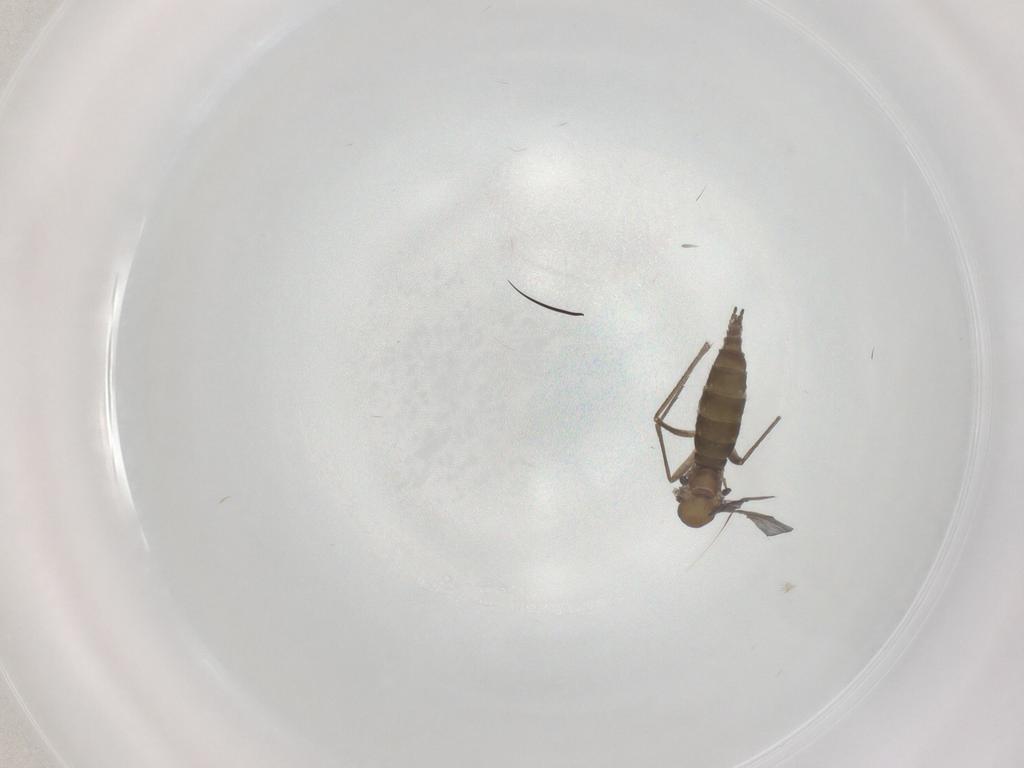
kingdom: Animalia
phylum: Arthropoda
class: Insecta
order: Diptera
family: Sciaridae
